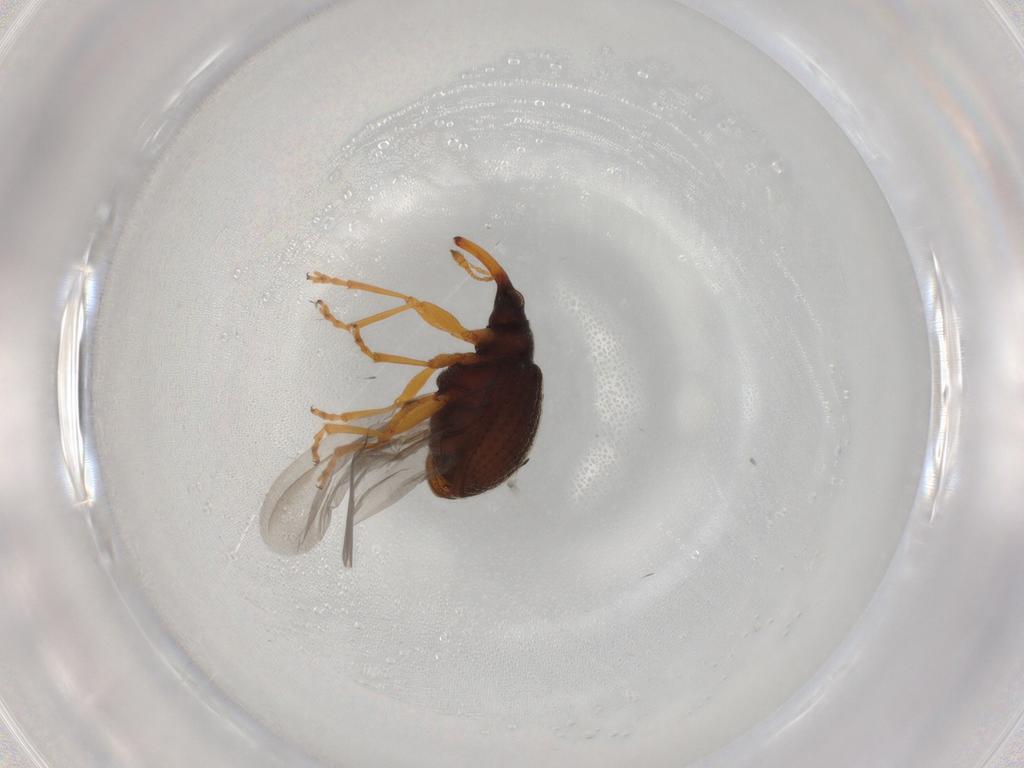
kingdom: Animalia
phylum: Arthropoda
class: Insecta
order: Coleoptera
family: Brentidae
